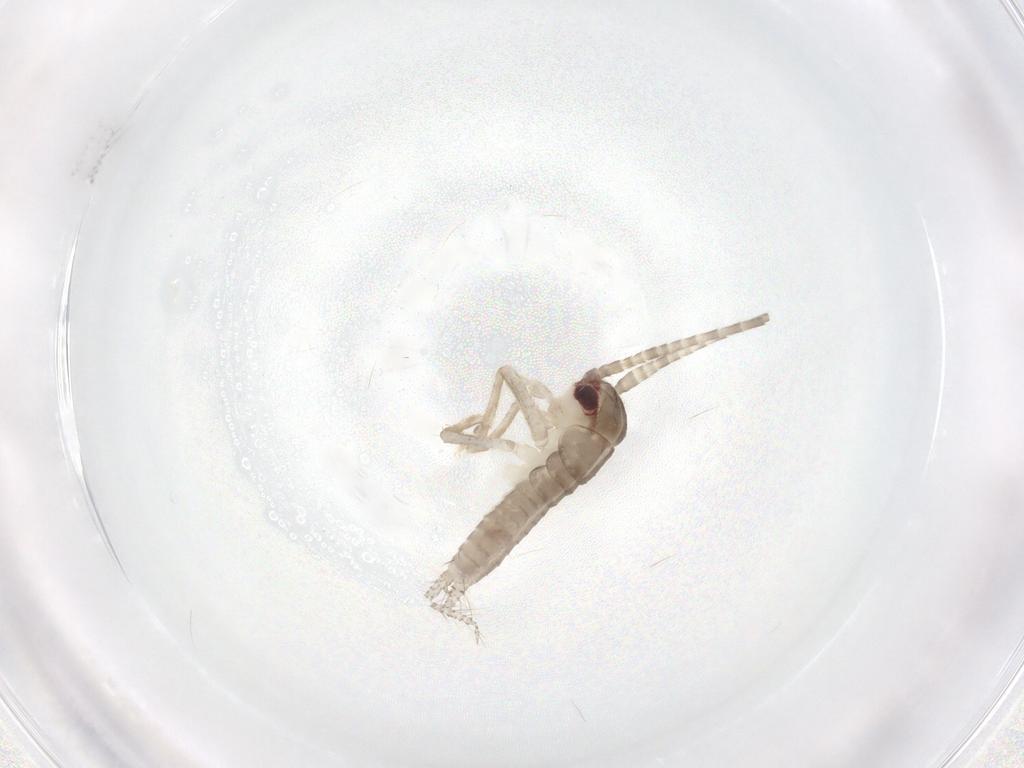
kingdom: Animalia
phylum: Arthropoda
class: Insecta
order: Orthoptera
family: Gryllidae
